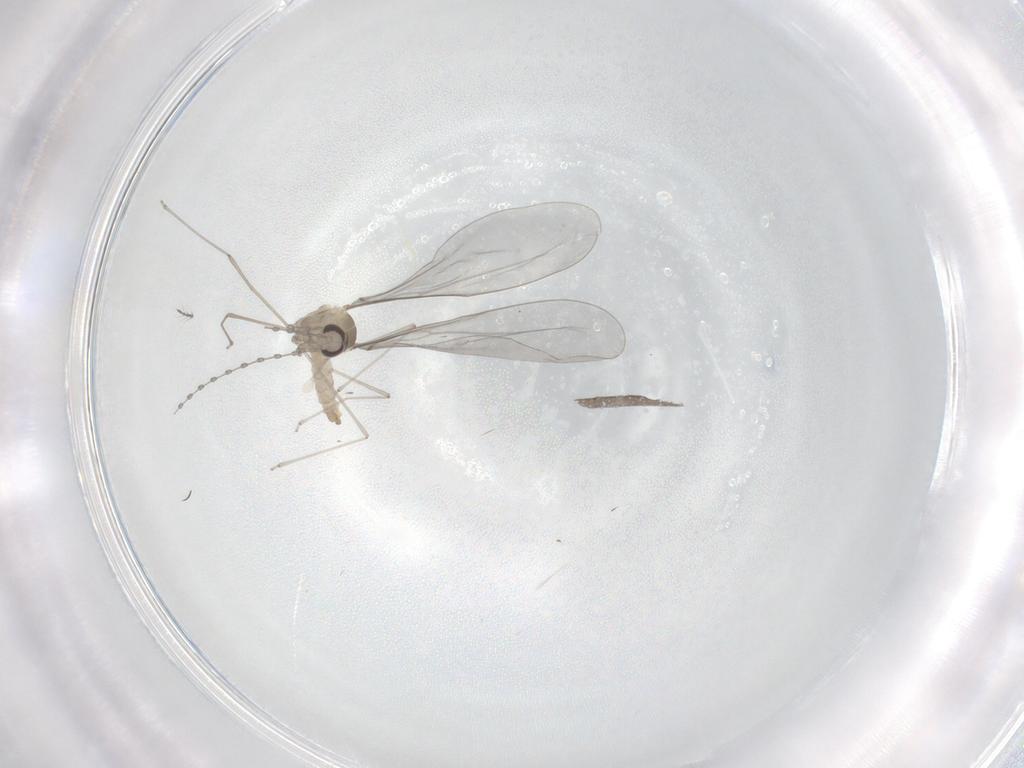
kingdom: Animalia
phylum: Arthropoda
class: Insecta
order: Diptera
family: Cecidomyiidae
